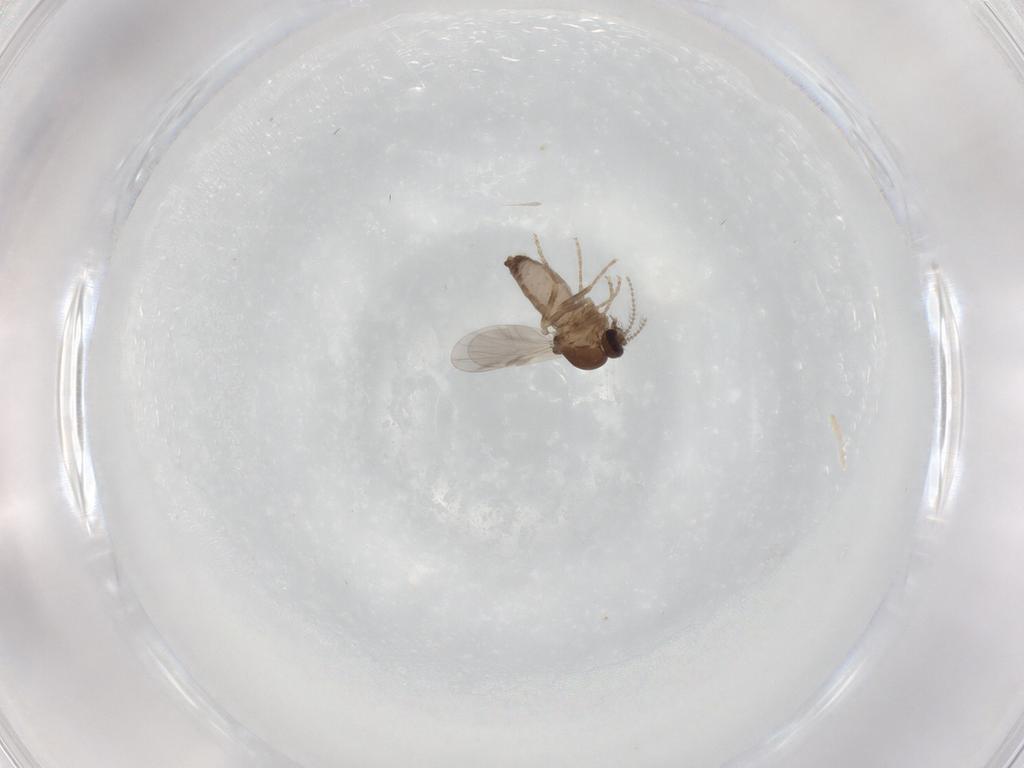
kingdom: Animalia
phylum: Arthropoda
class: Insecta
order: Diptera
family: Ceratopogonidae
